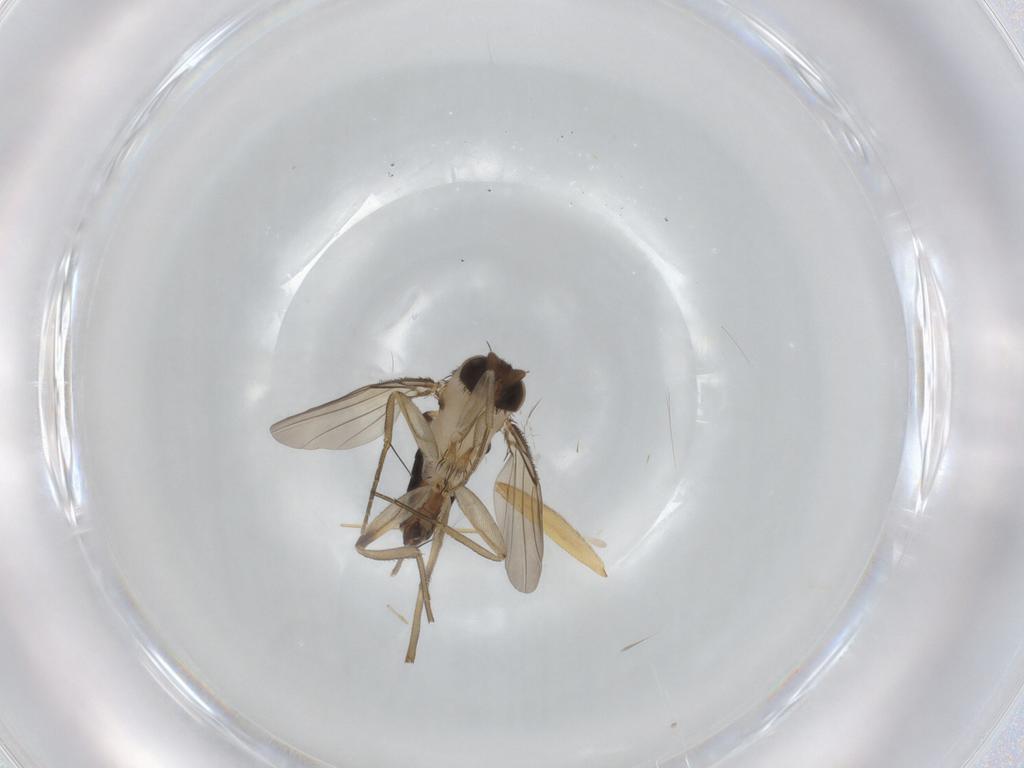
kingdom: Animalia
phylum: Arthropoda
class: Insecta
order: Diptera
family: Phoridae
